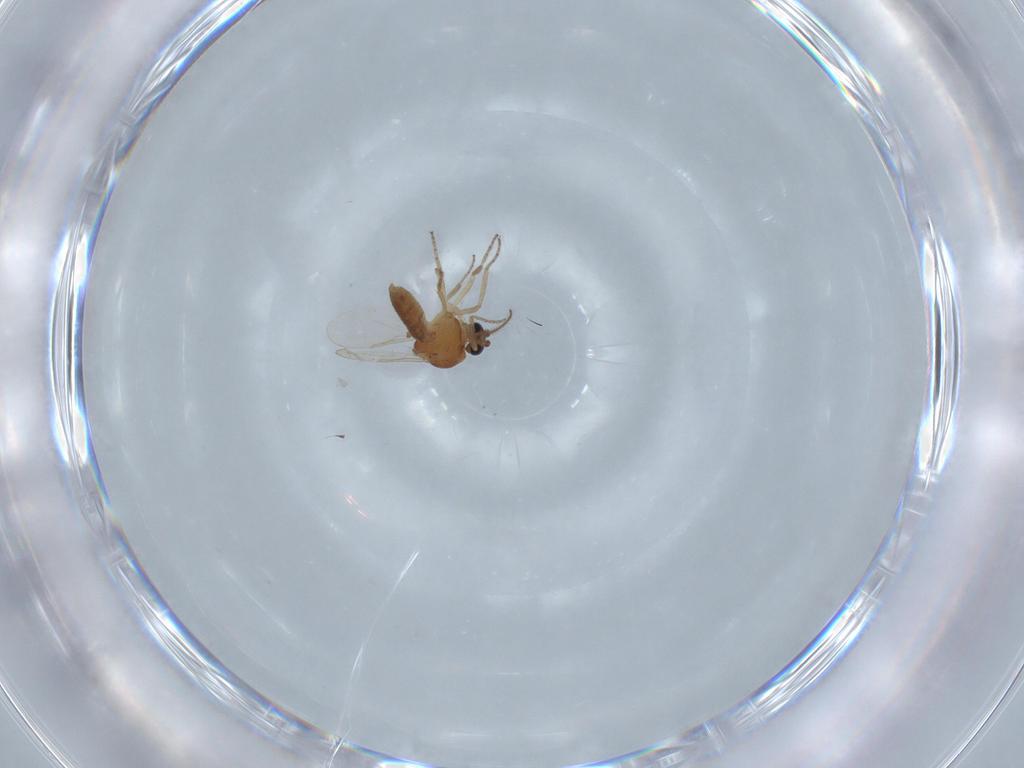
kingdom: Animalia
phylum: Arthropoda
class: Insecta
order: Diptera
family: Ceratopogonidae
